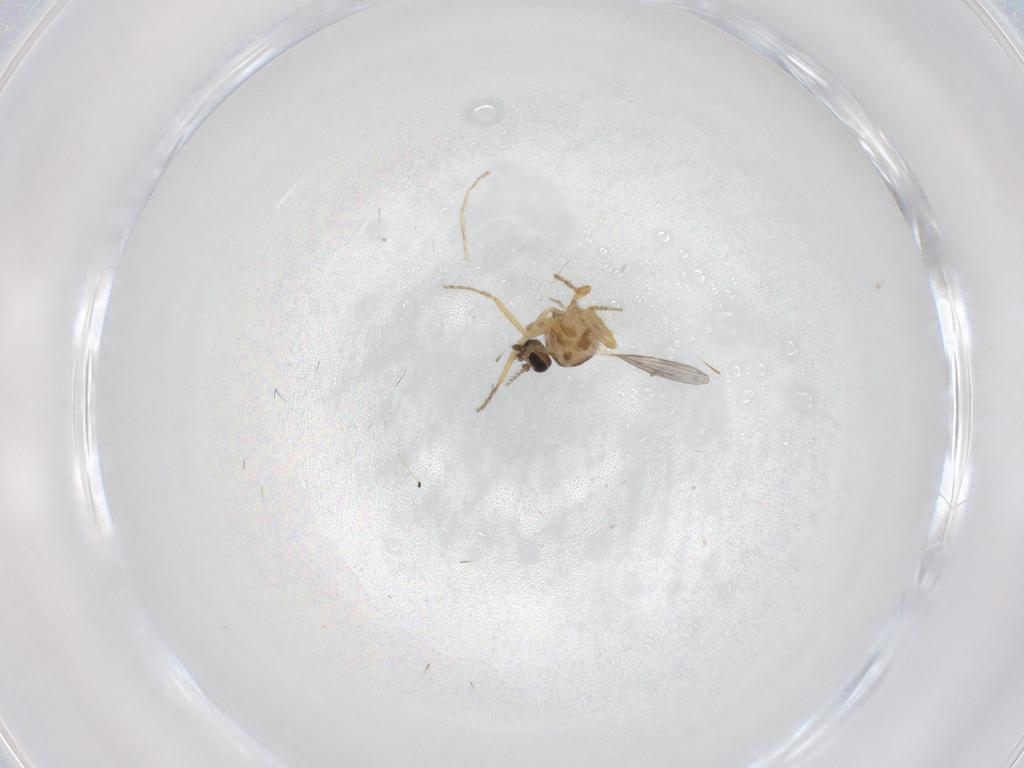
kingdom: Animalia
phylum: Arthropoda
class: Insecta
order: Diptera
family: Ceratopogonidae
